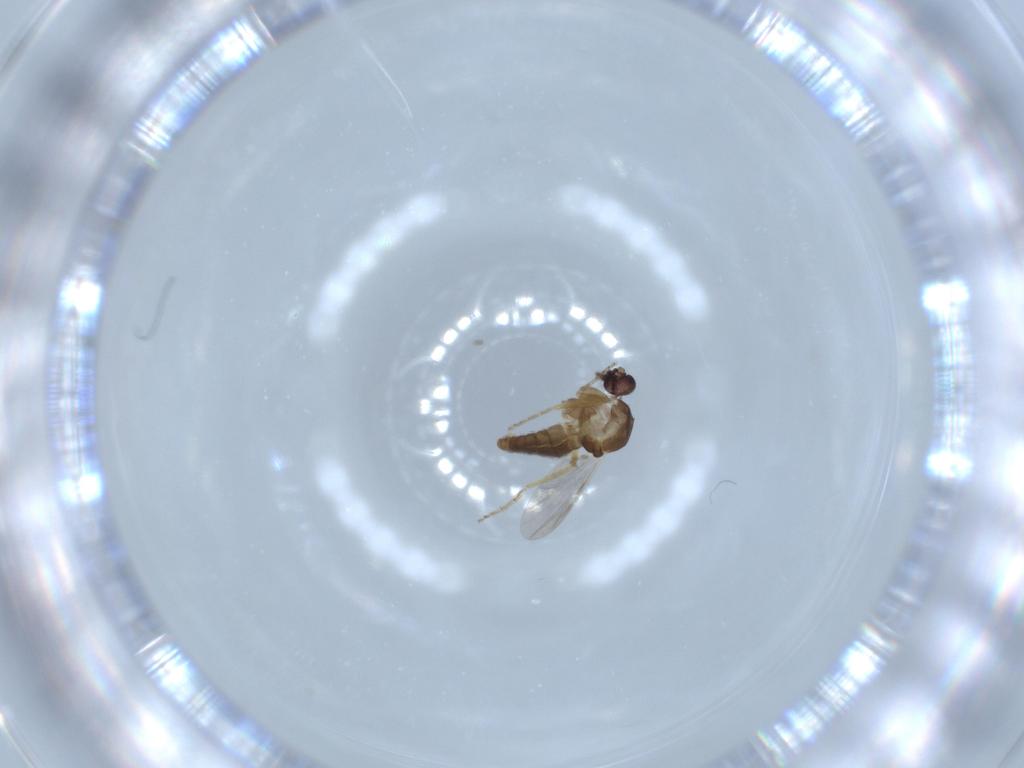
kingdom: Animalia
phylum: Arthropoda
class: Insecta
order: Diptera
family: Ceratopogonidae
